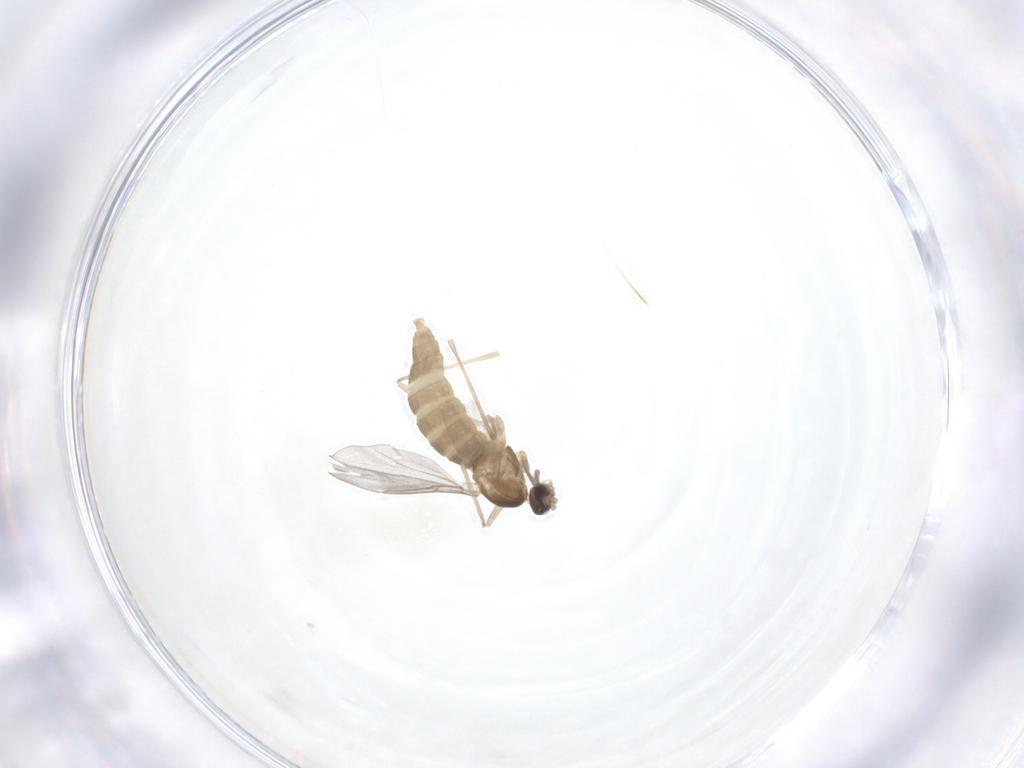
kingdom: Animalia
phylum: Arthropoda
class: Insecta
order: Diptera
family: Cecidomyiidae
